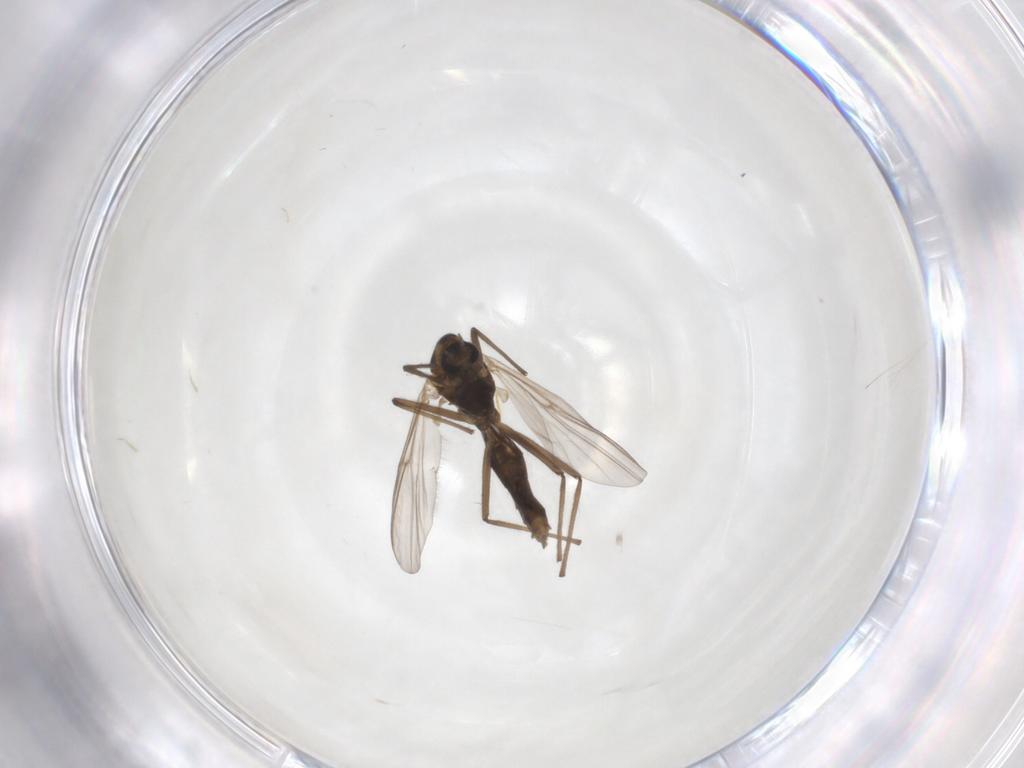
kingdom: Animalia
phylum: Arthropoda
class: Insecta
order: Diptera
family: Chironomidae
